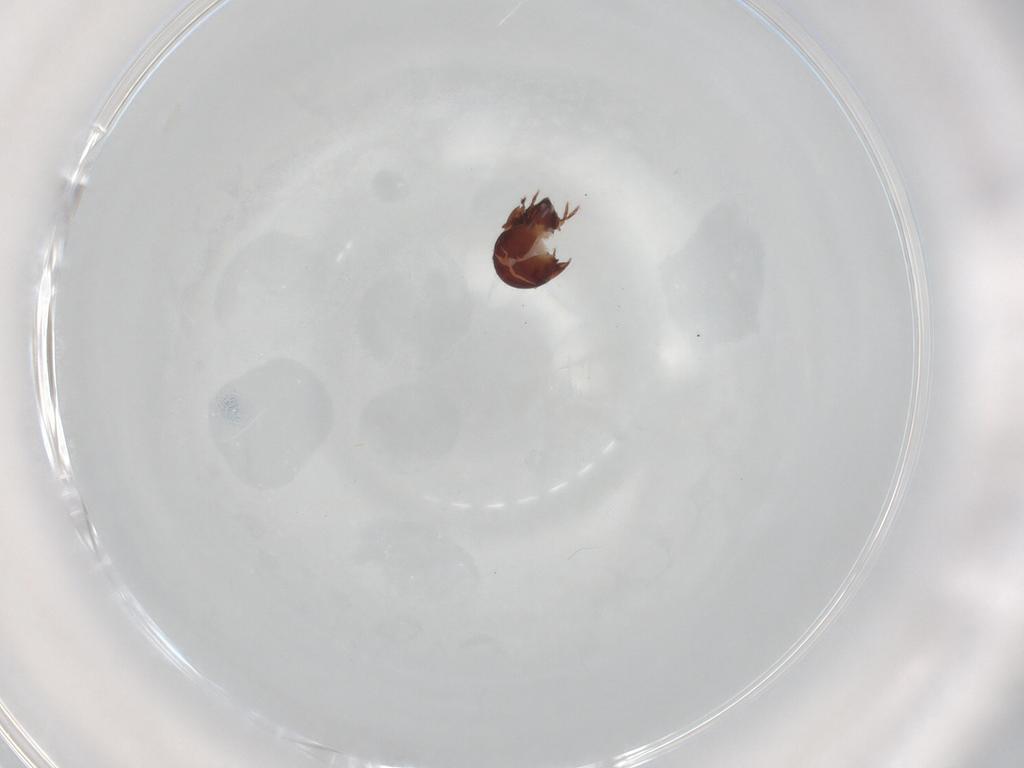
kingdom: Animalia
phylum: Arthropoda
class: Arachnida
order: Sarcoptiformes
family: Humerobatidae
